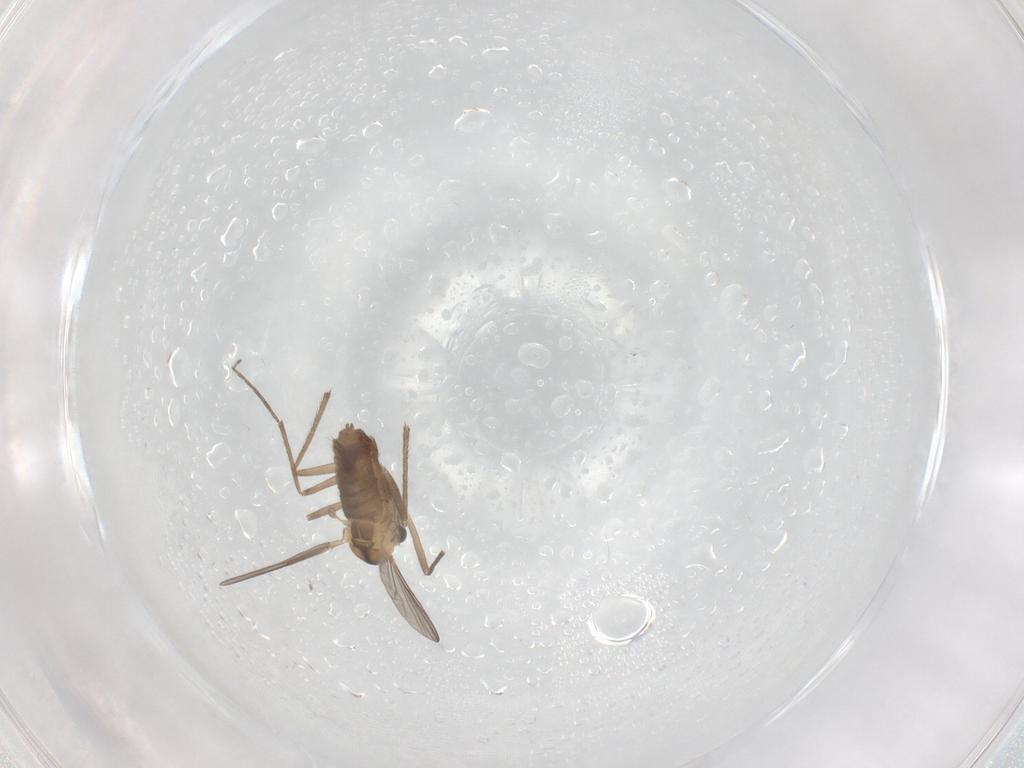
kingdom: Animalia
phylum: Arthropoda
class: Insecta
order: Diptera
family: Chironomidae
